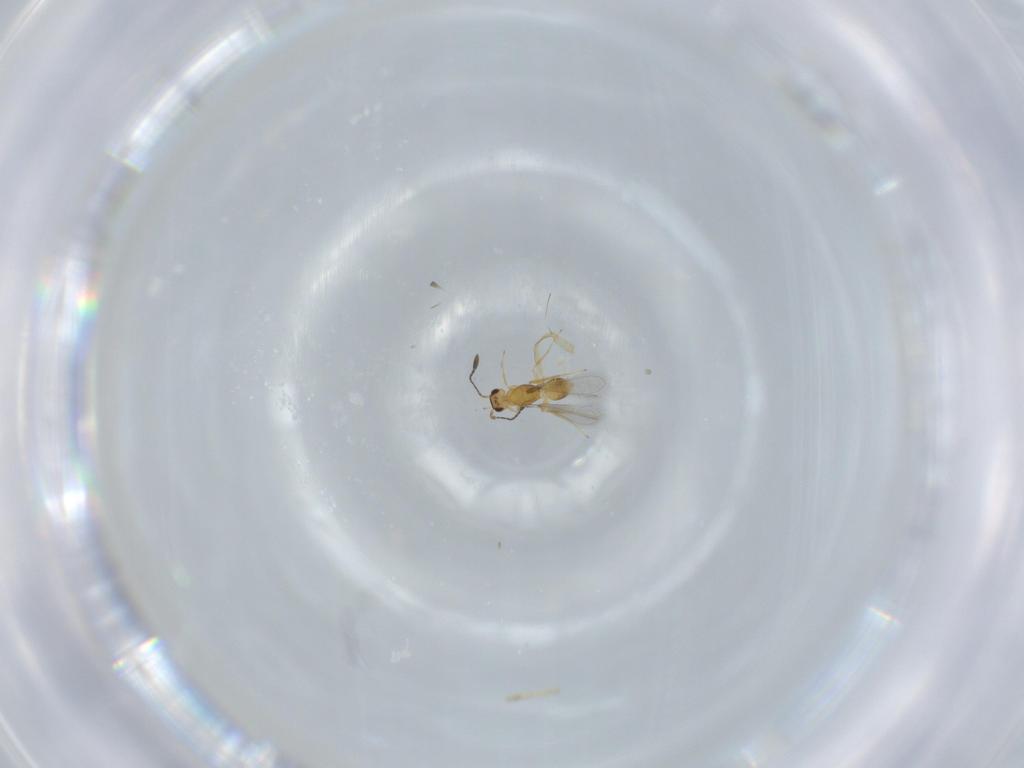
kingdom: Animalia
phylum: Arthropoda
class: Insecta
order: Hymenoptera
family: Mymaridae
